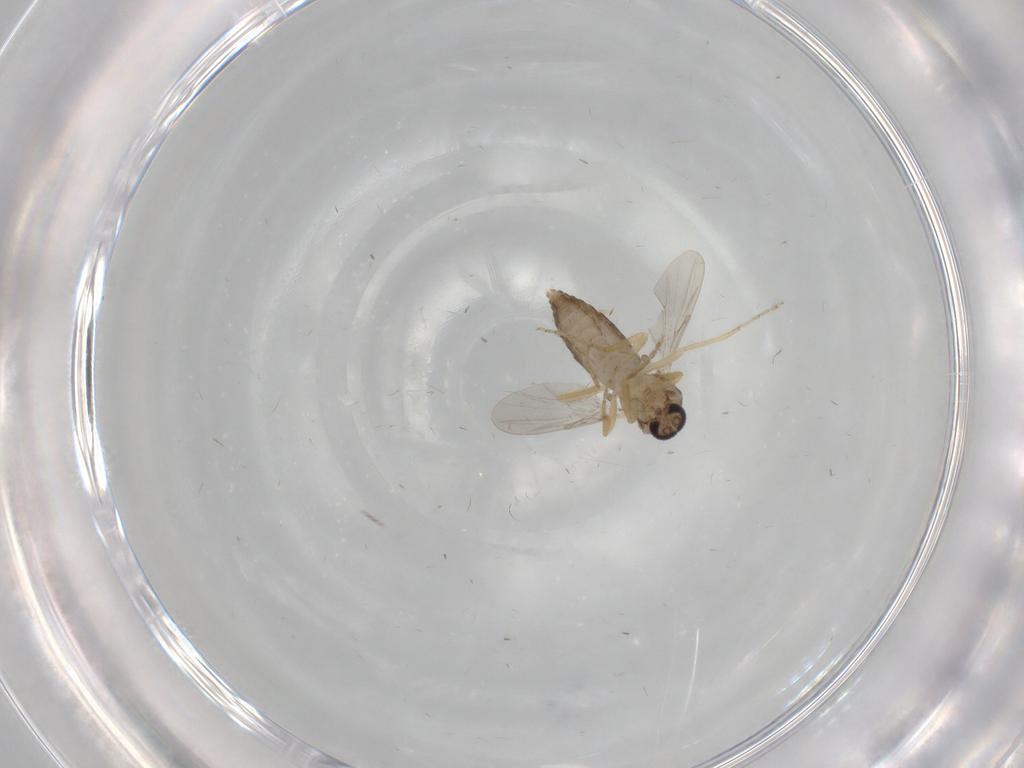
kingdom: Animalia
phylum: Arthropoda
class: Insecta
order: Diptera
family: Ceratopogonidae
